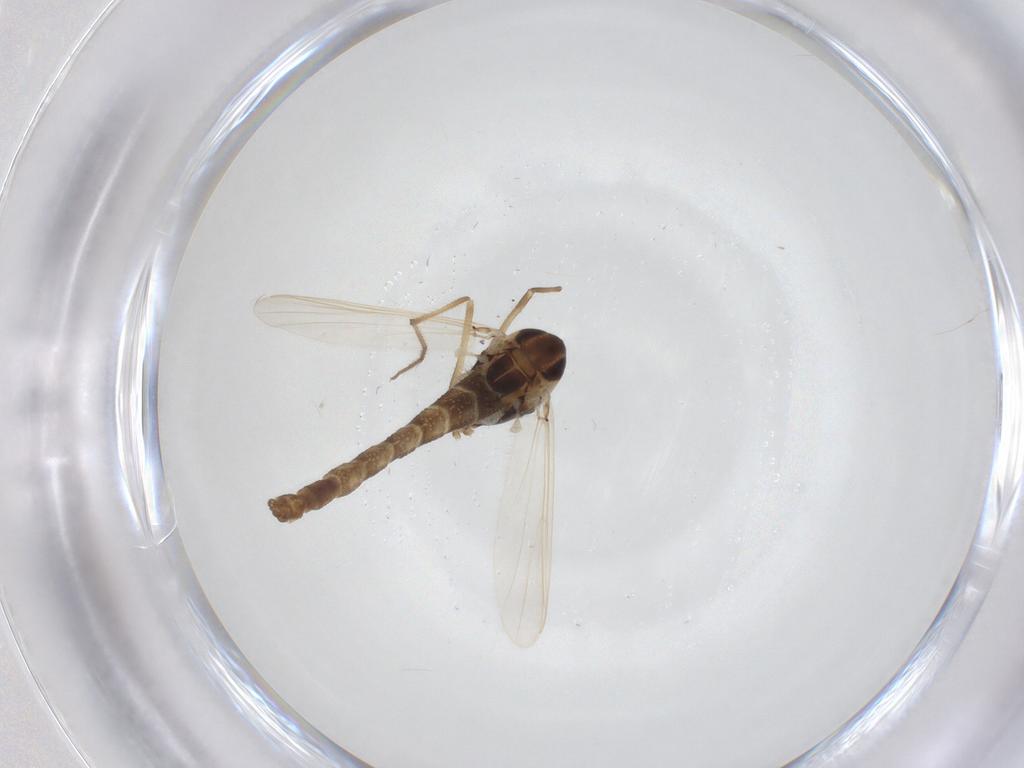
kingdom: Animalia
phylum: Arthropoda
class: Insecta
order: Diptera
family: Chironomidae
